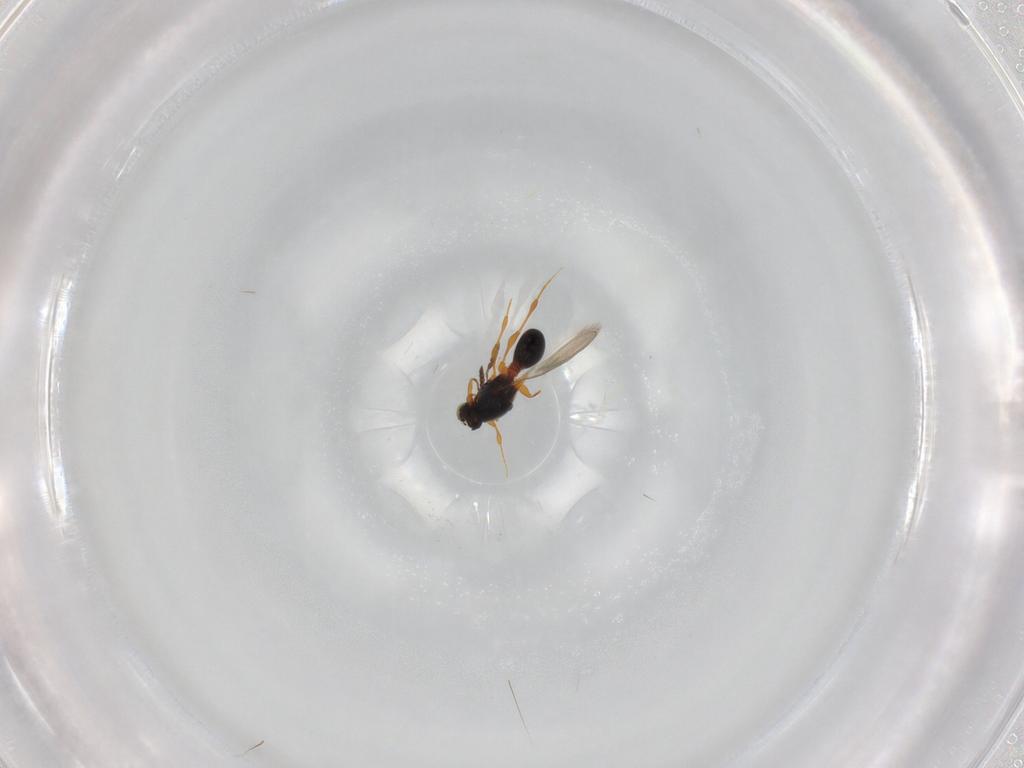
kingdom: Animalia
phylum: Arthropoda
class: Insecta
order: Hymenoptera
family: Platygastridae
